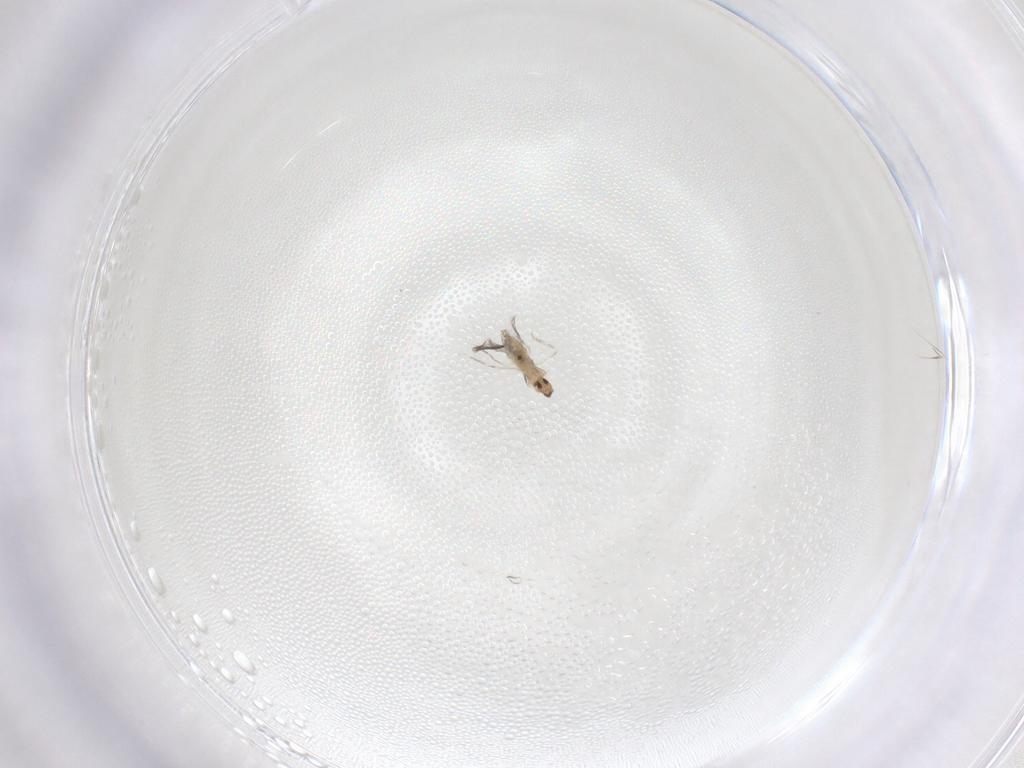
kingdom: Animalia
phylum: Arthropoda
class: Insecta
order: Diptera
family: Cecidomyiidae
